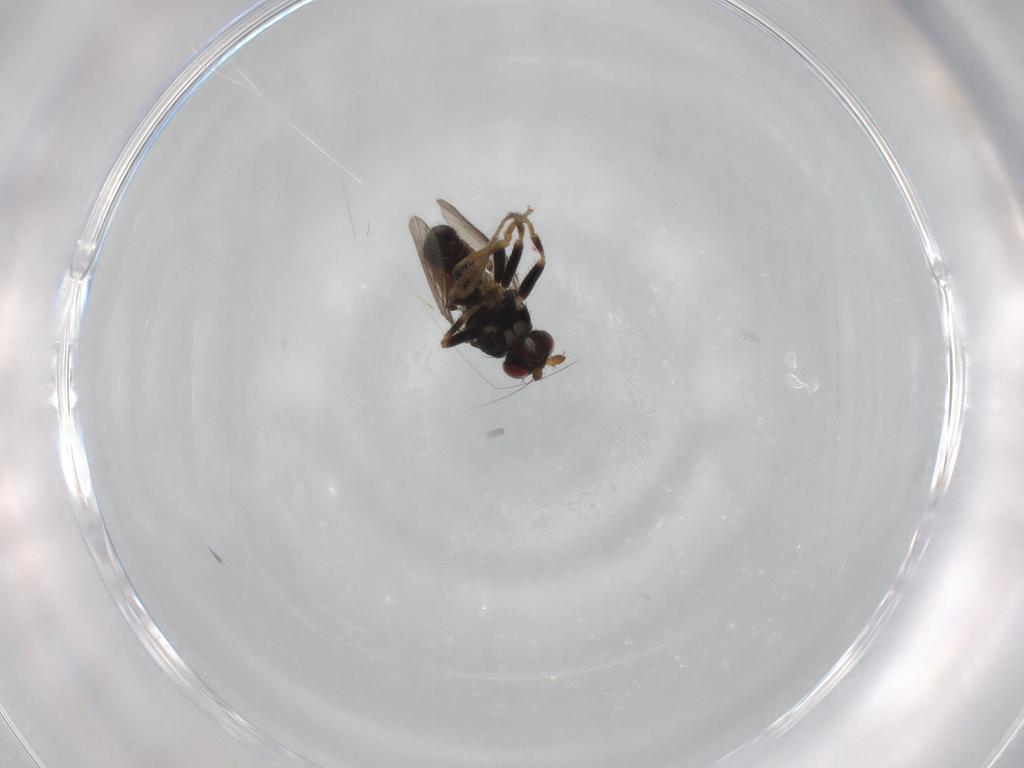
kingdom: Animalia
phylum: Arthropoda
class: Insecta
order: Diptera
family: Sphaeroceridae
